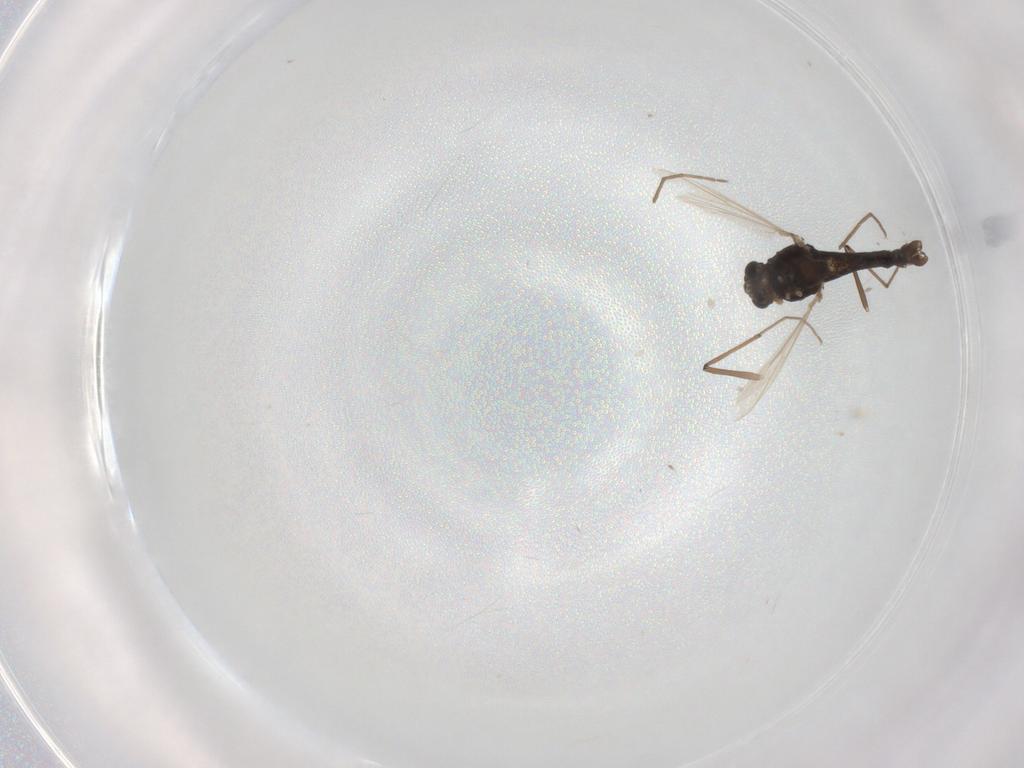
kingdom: Animalia
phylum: Arthropoda
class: Insecta
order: Diptera
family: Chironomidae
